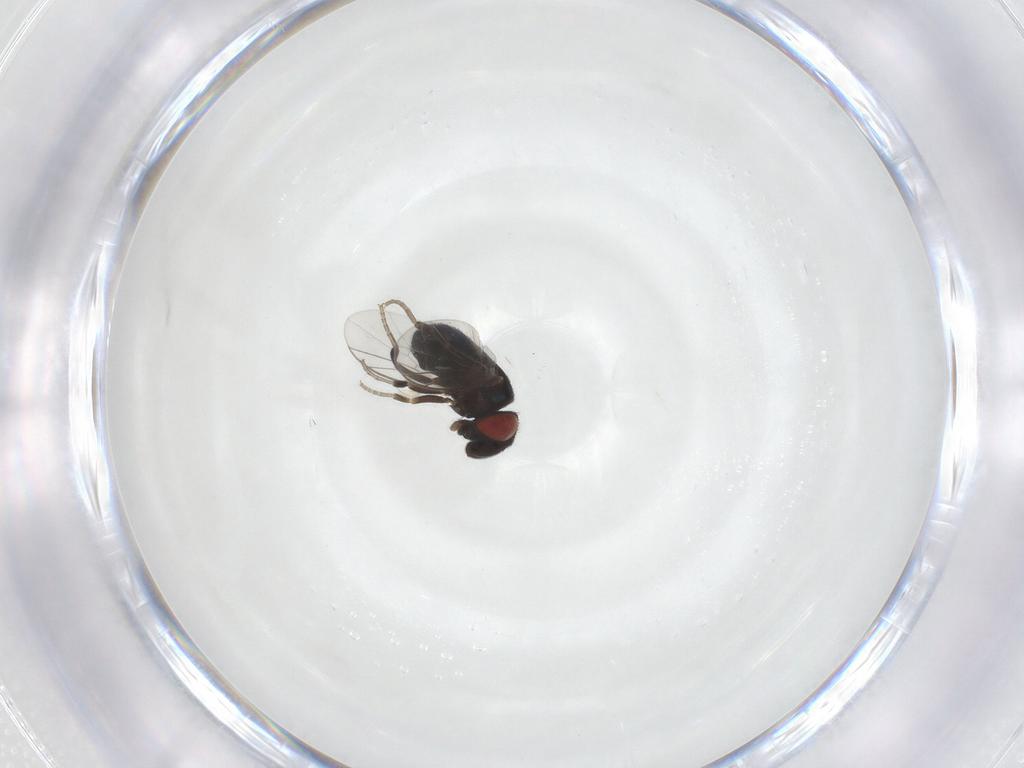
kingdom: Animalia
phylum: Arthropoda
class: Insecta
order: Diptera
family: Cryptochetidae
